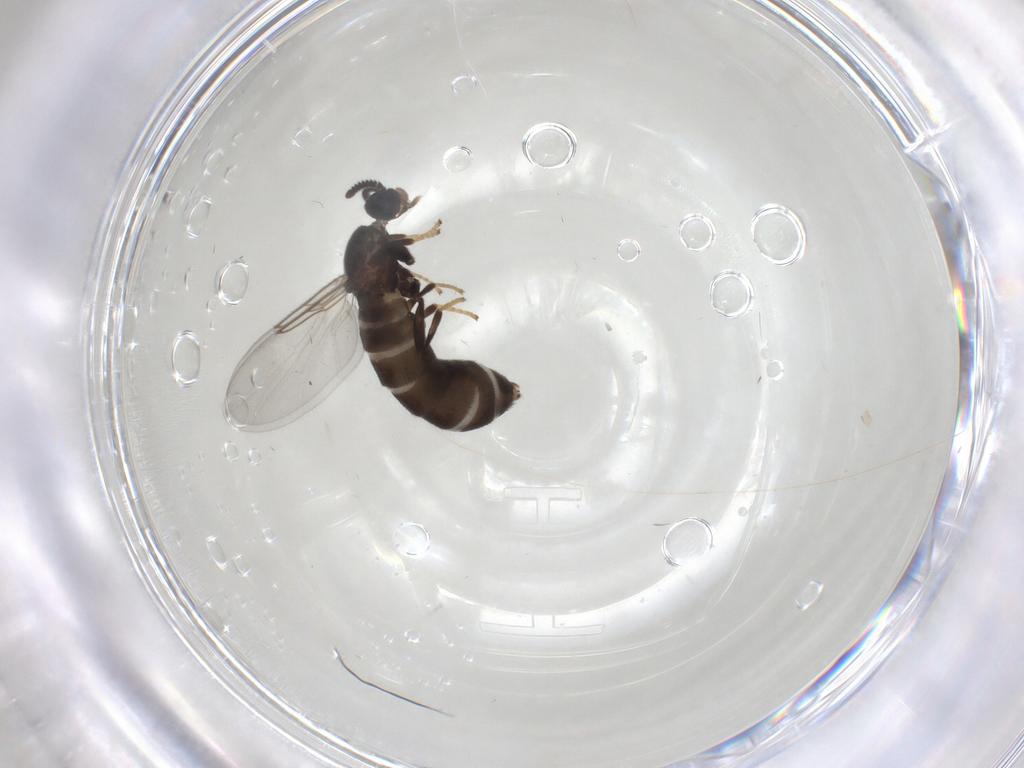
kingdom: Animalia
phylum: Arthropoda
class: Insecta
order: Diptera
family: Scatopsidae
